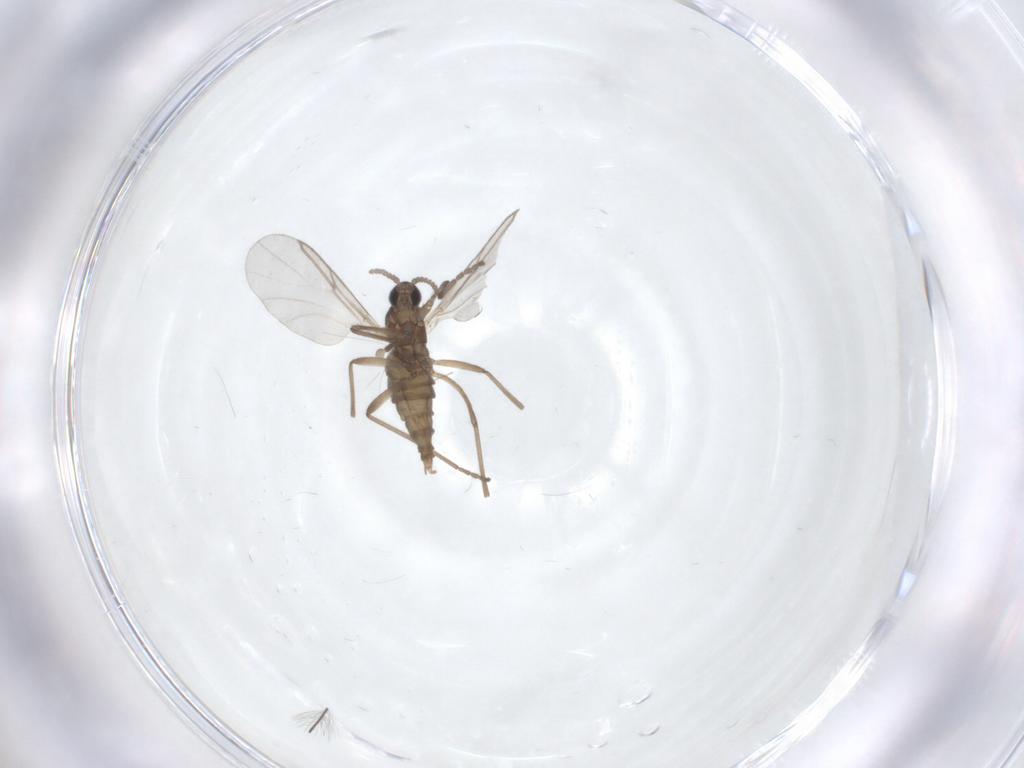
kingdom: Animalia
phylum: Arthropoda
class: Insecta
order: Diptera
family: Chironomidae
